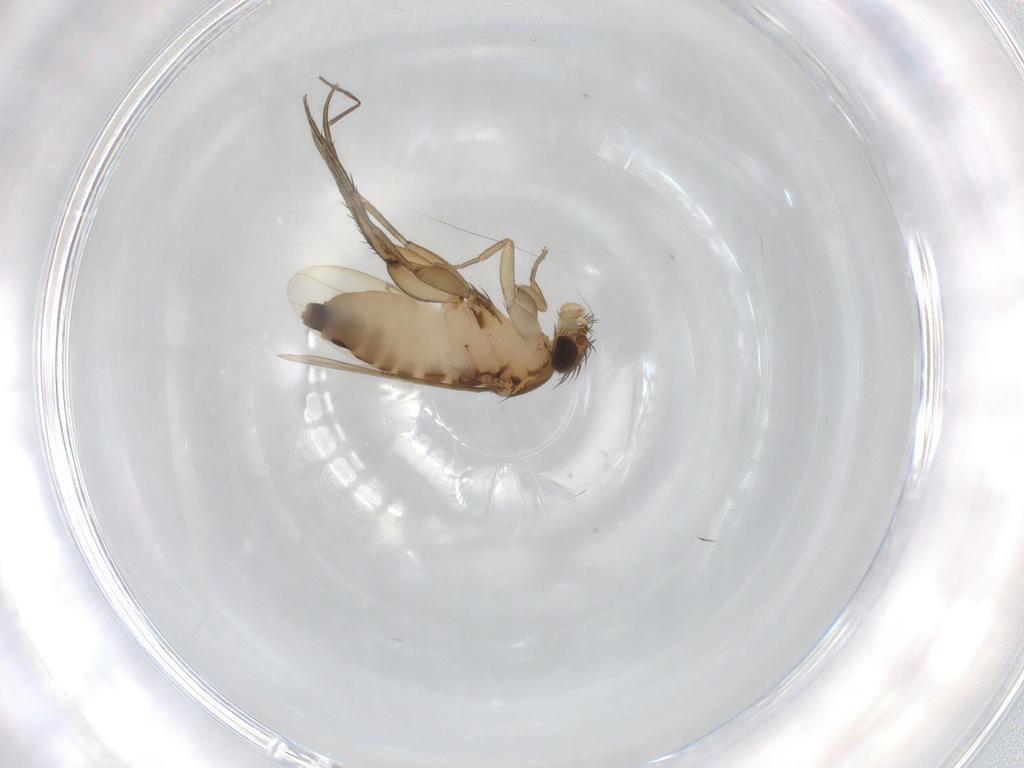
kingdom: Animalia
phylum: Arthropoda
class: Insecta
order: Diptera
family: Phoridae
